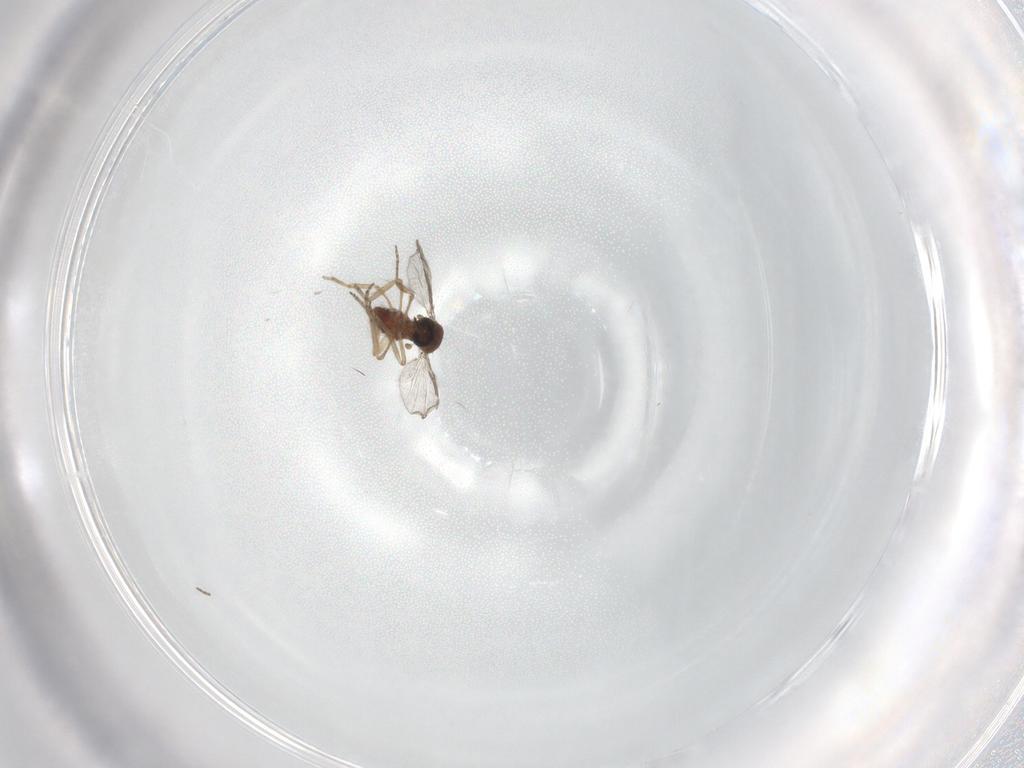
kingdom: Animalia
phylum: Arthropoda
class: Insecta
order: Diptera
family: Chironomidae
